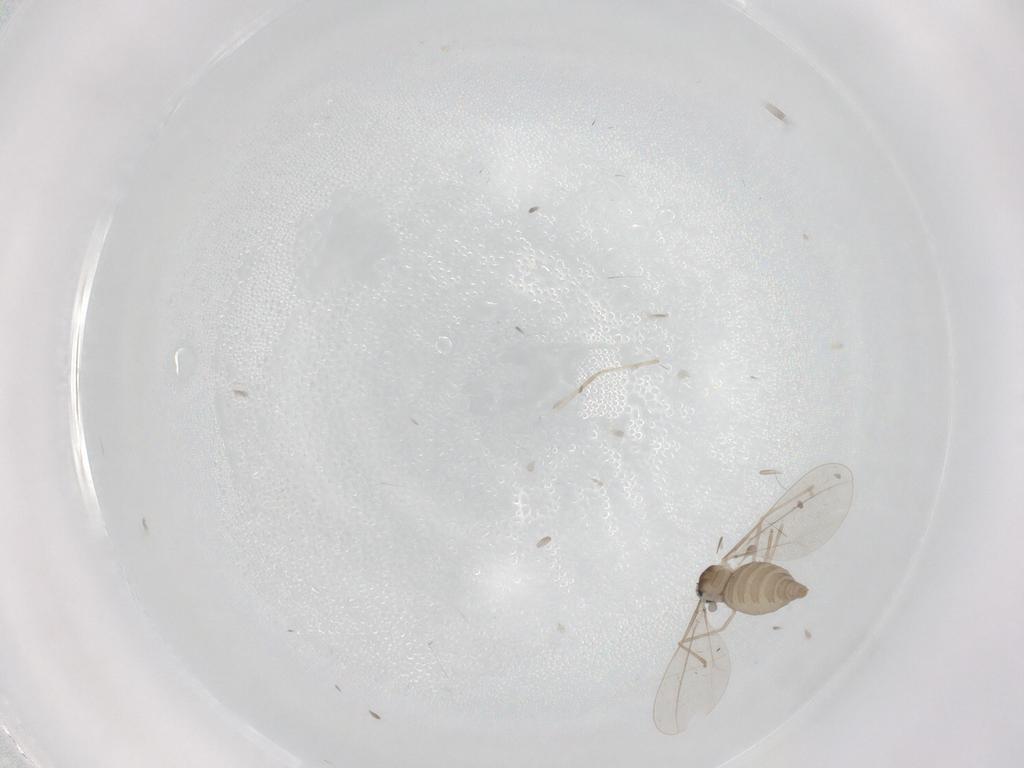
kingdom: Animalia
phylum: Arthropoda
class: Insecta
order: Diptera
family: Cecidomyiidae
